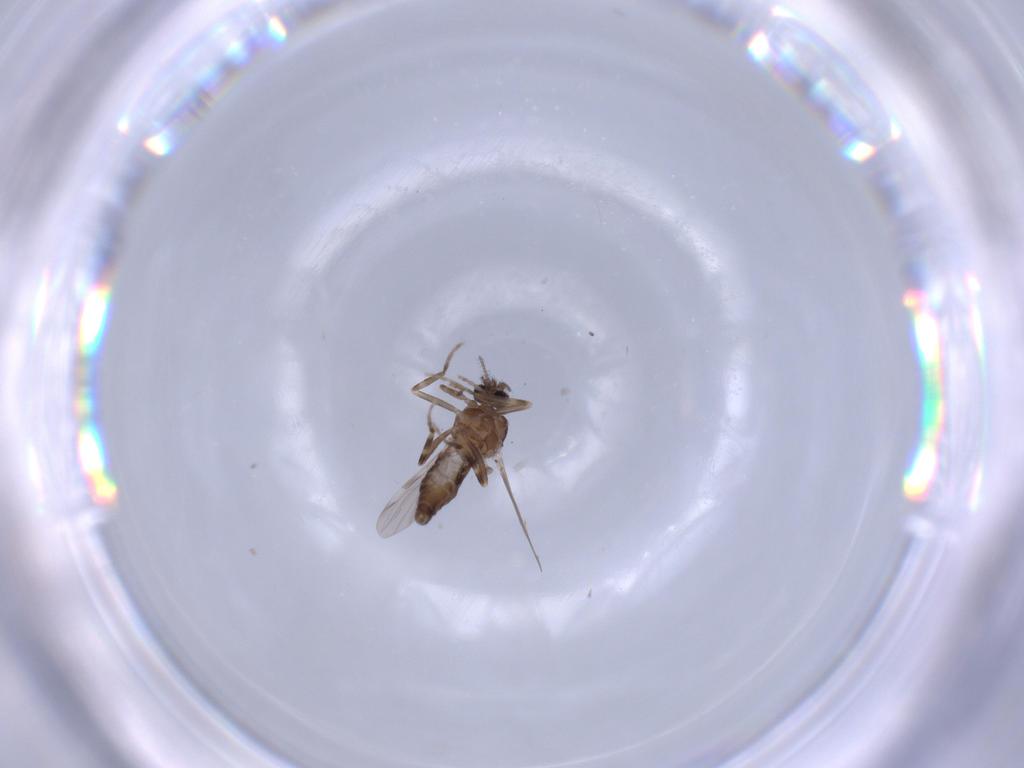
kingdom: Animalia
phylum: Arthropoda
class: Insecta
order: Diptera
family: Ceratopogonidae
